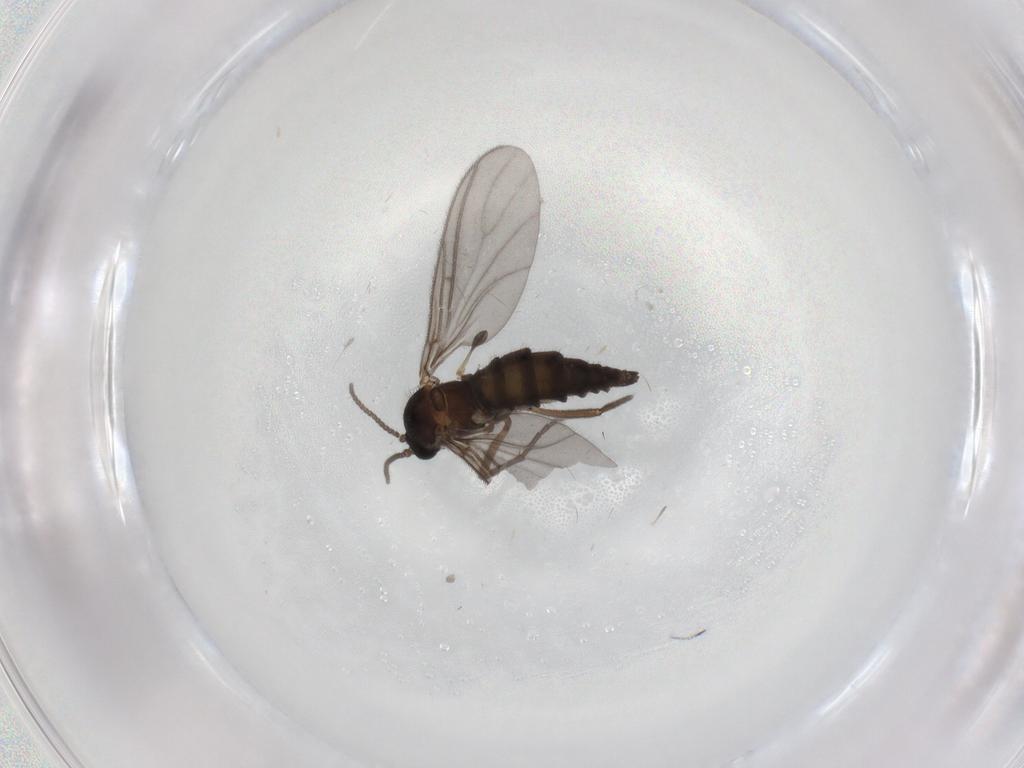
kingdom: Animalia
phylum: Arthropoda
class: Insecta
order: Diptera
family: Sciaridae
